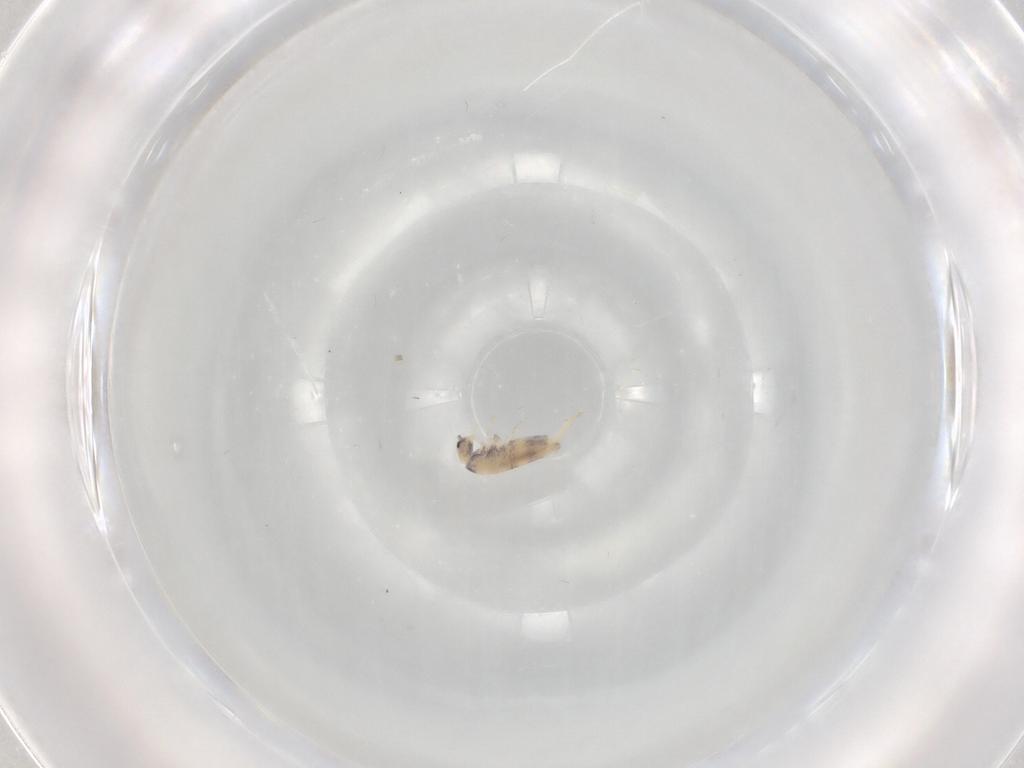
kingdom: Animalia
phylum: Arthropoda
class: Collembola
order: Entomobryomorpha
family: Entomobryidae
